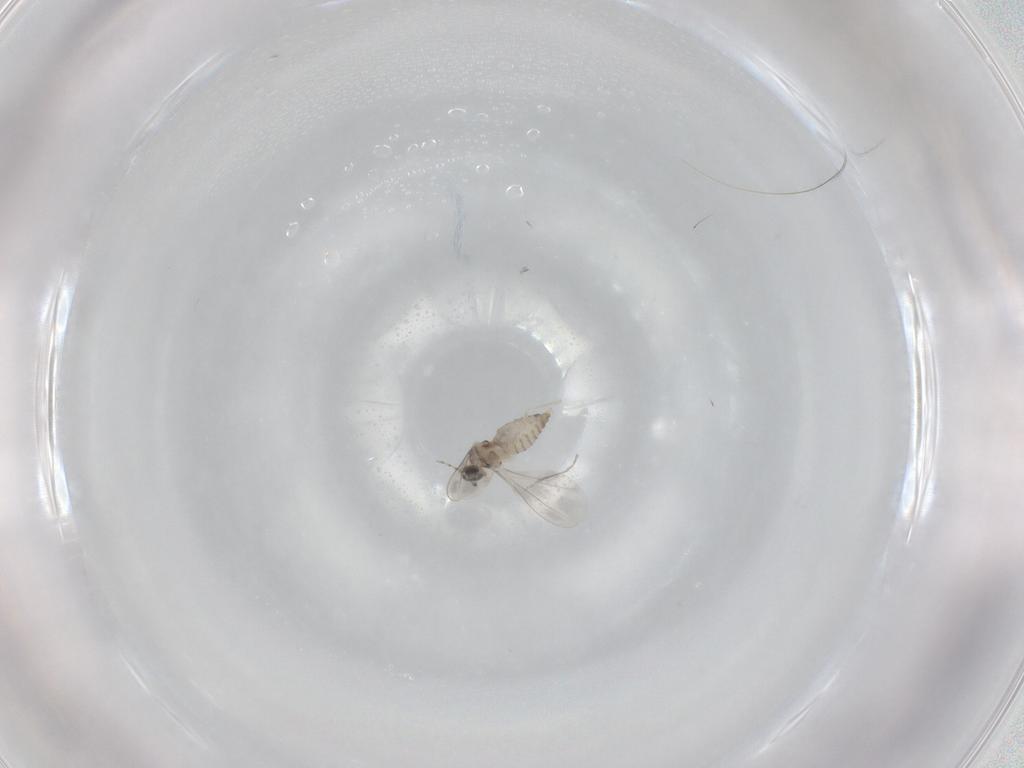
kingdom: Animalia
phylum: Arthropoda
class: Insecta
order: Diptera
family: Cecidomyiidae
